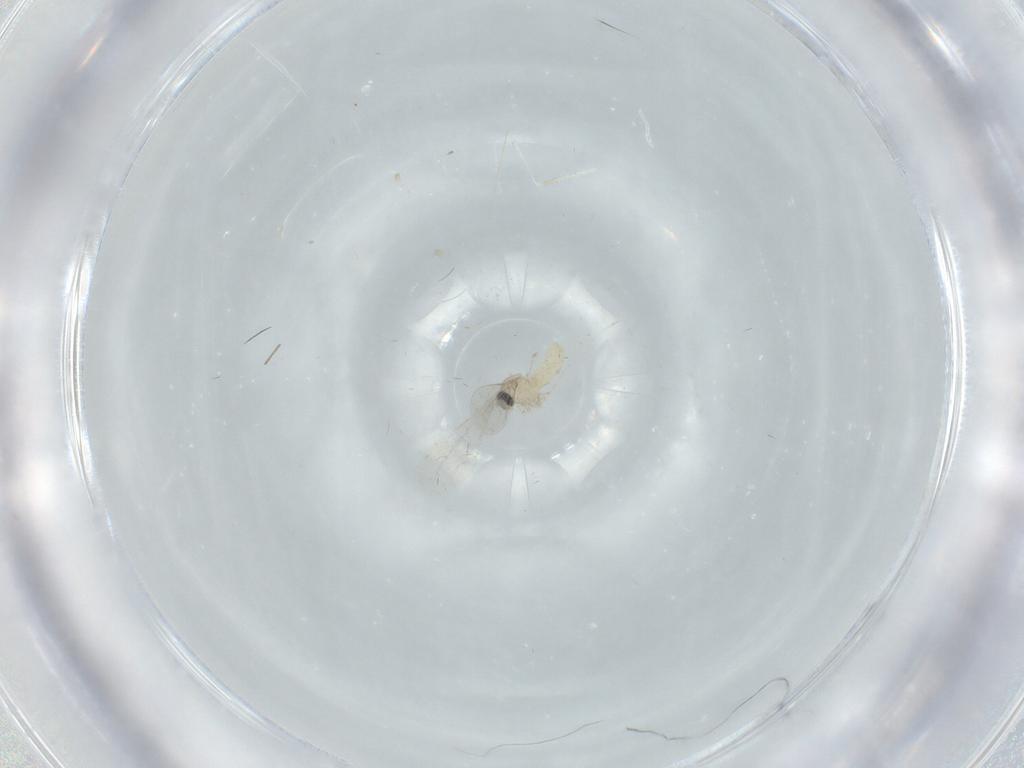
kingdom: Animalia
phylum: Arthropoda
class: Insecta
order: Diptera
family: Cecidomyiidae
